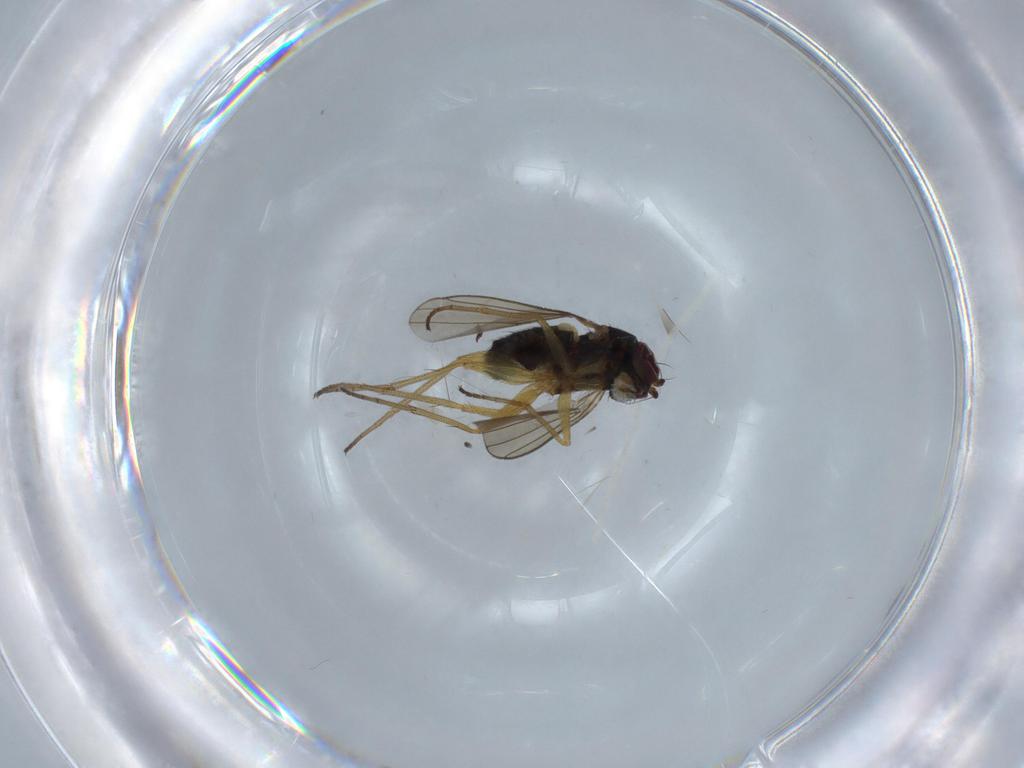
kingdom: Animalia
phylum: Arthropoda
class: Insecta
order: Diptera
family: Dolichopodidae
